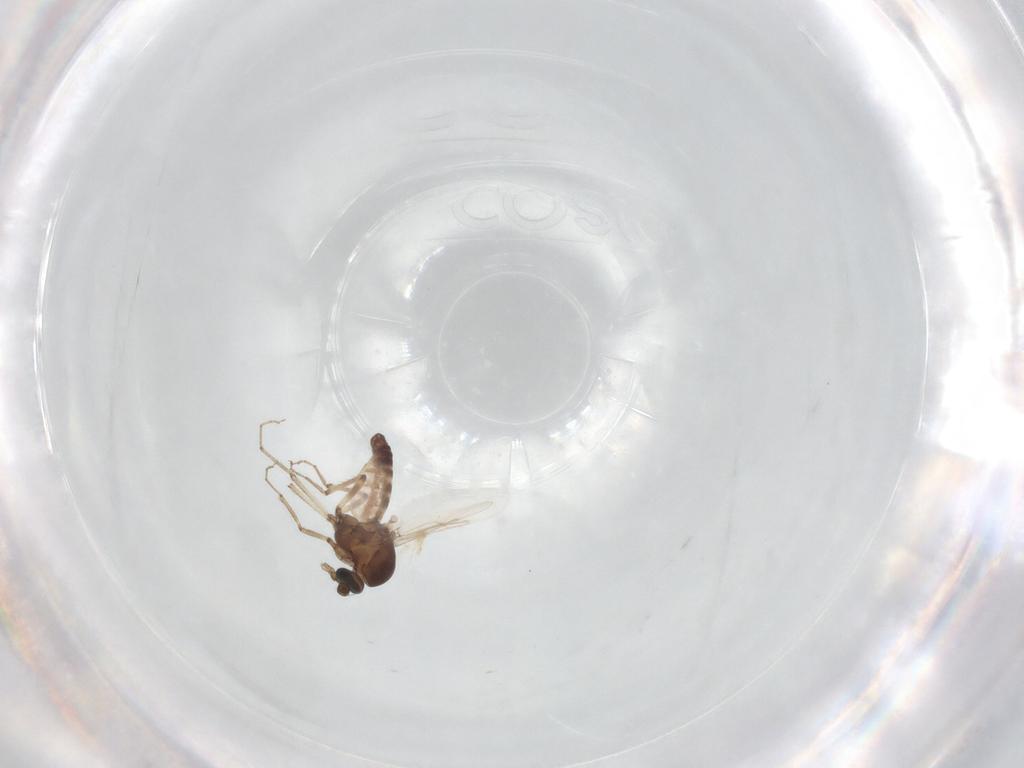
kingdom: Animalia
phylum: Arthropoda
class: Insecta
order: Diptera
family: Ceratopogonidae
